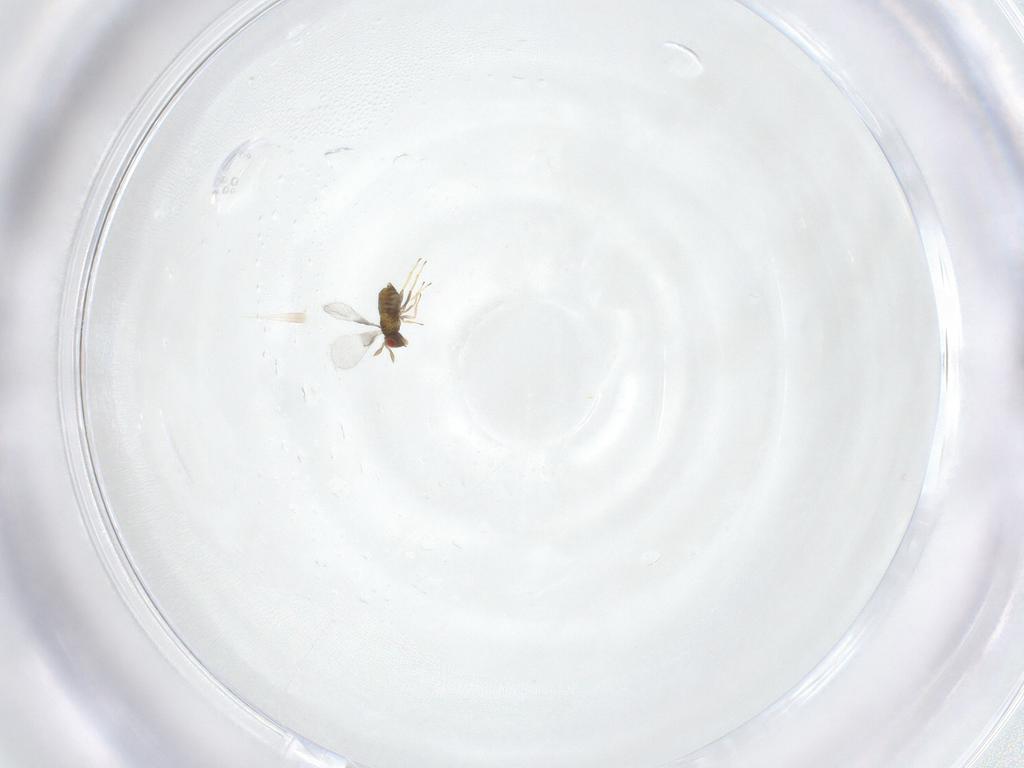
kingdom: Animalia
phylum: Arthropoda
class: Insecta
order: Hymenoptera
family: Trichogrammatidae
